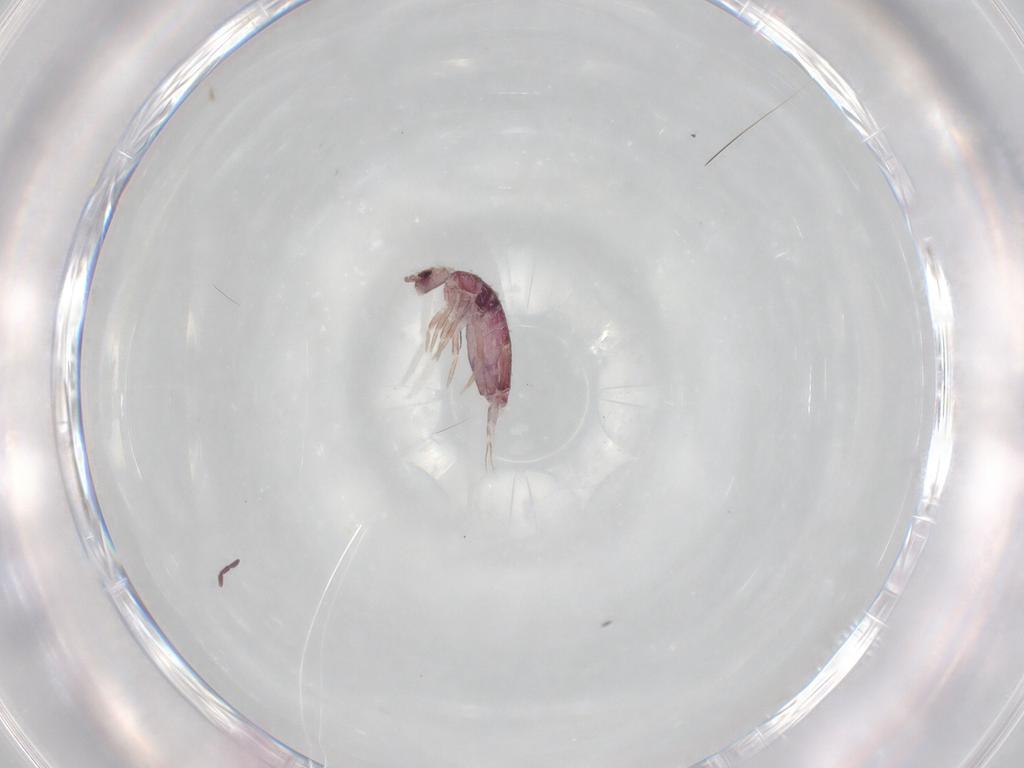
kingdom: Animalia
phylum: Arthropoda
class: Collembola
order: Entomobryomorpha
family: Entomobryidae
